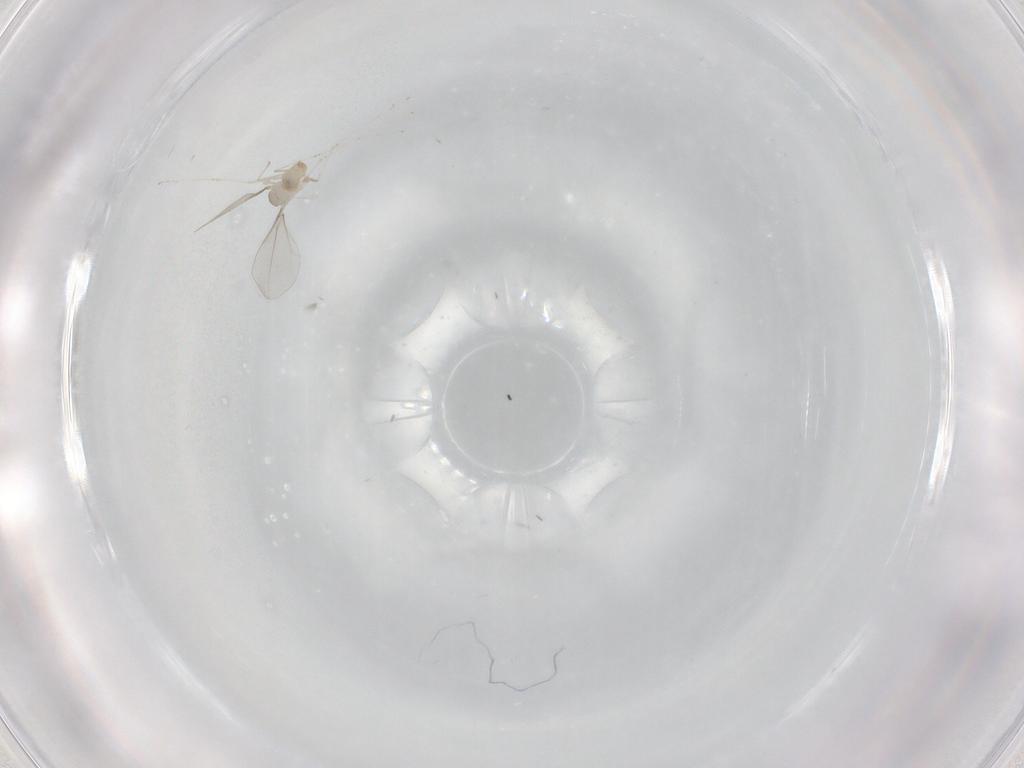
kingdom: Animalia
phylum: Arthropoda
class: Insecta
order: Diptera
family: Cecidomyiidae
